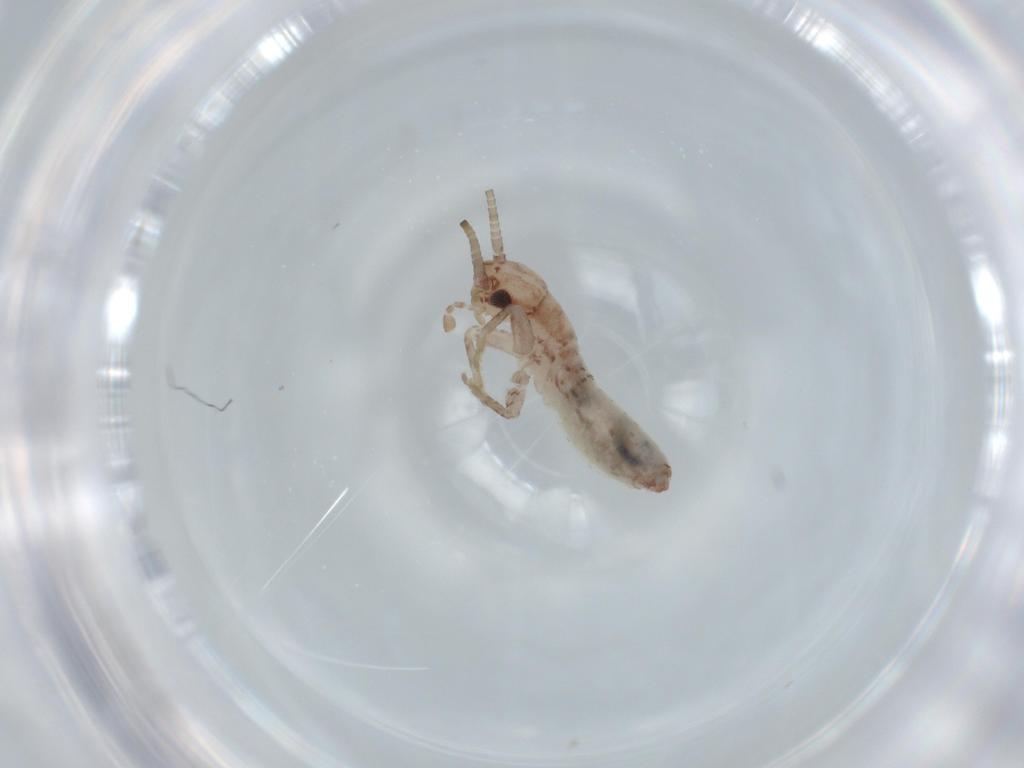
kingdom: Animalia
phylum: Arthropoda
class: Insecta
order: Orthoptera
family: Mogoplistidae
